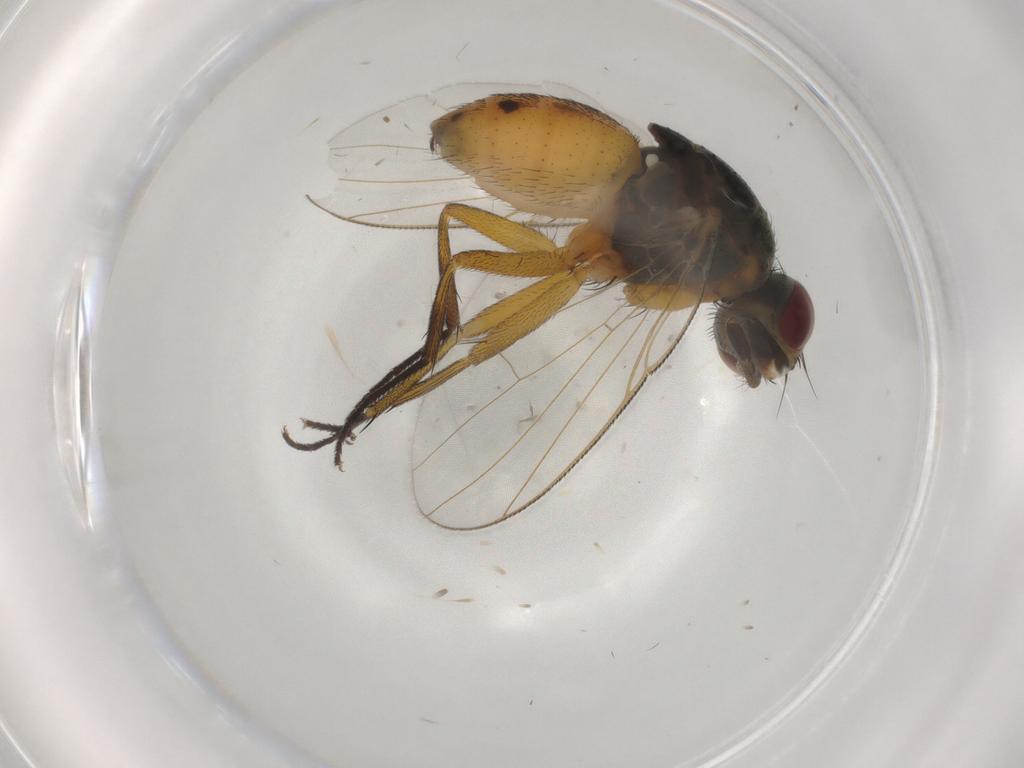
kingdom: Animalia
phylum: Arthropoda
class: Insecta
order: Diptera
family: Muscidae
